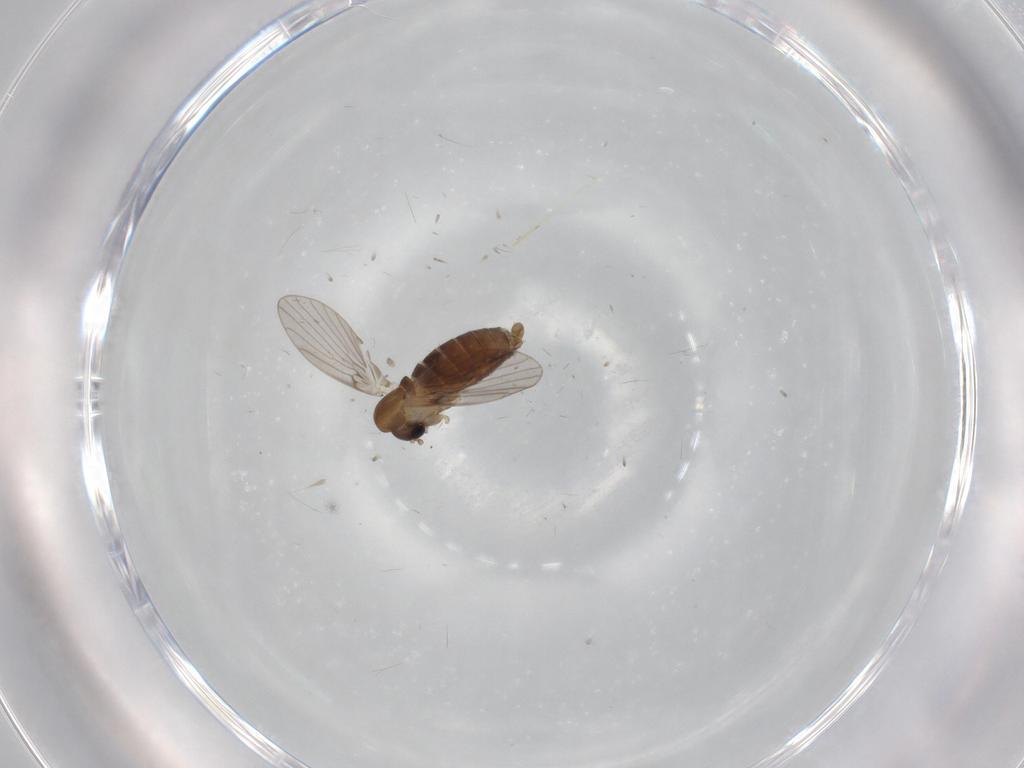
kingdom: Animalia
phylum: Arthropoda
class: Insecta
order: Diptera
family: Psychodidae
